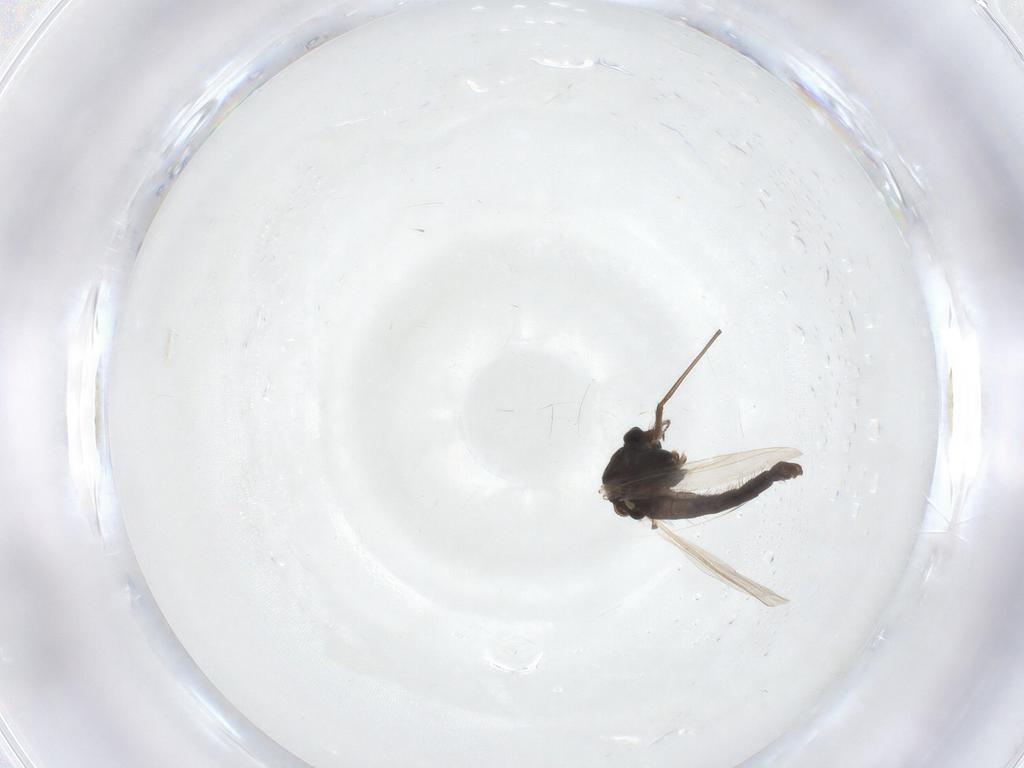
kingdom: Animalia
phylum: Arthropoda
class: Insecta
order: Diptera
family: Chironomidae
